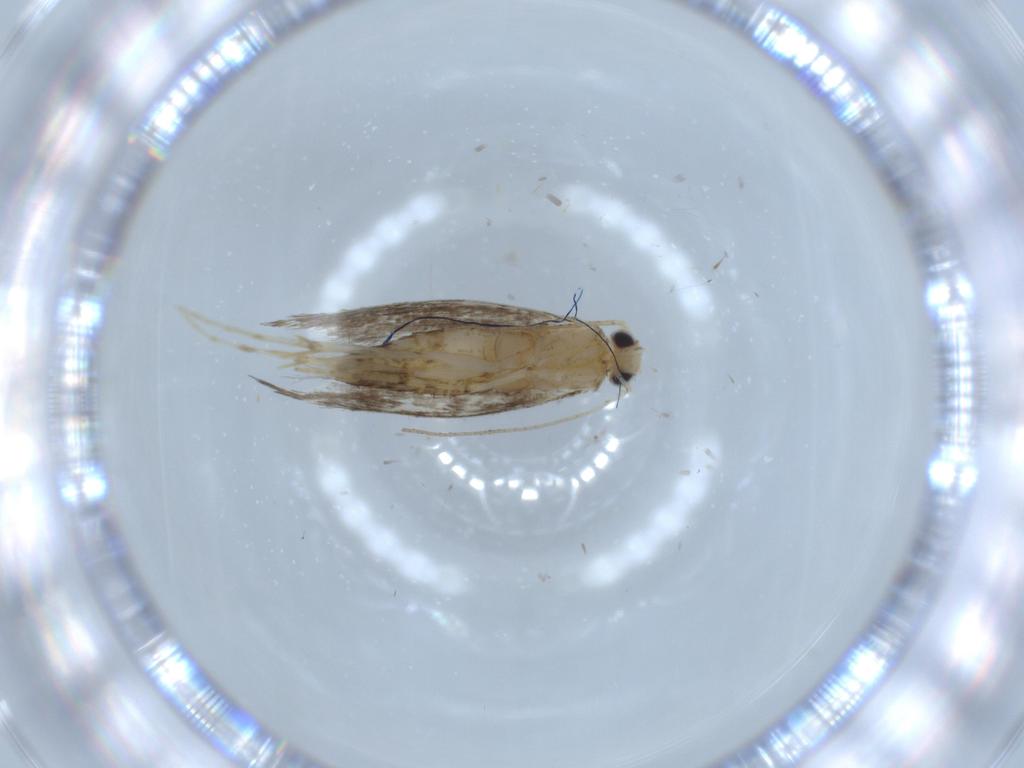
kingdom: Animalia
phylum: Arthropoda
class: Insecta
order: Lepidoptera
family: Argyresthiidae
